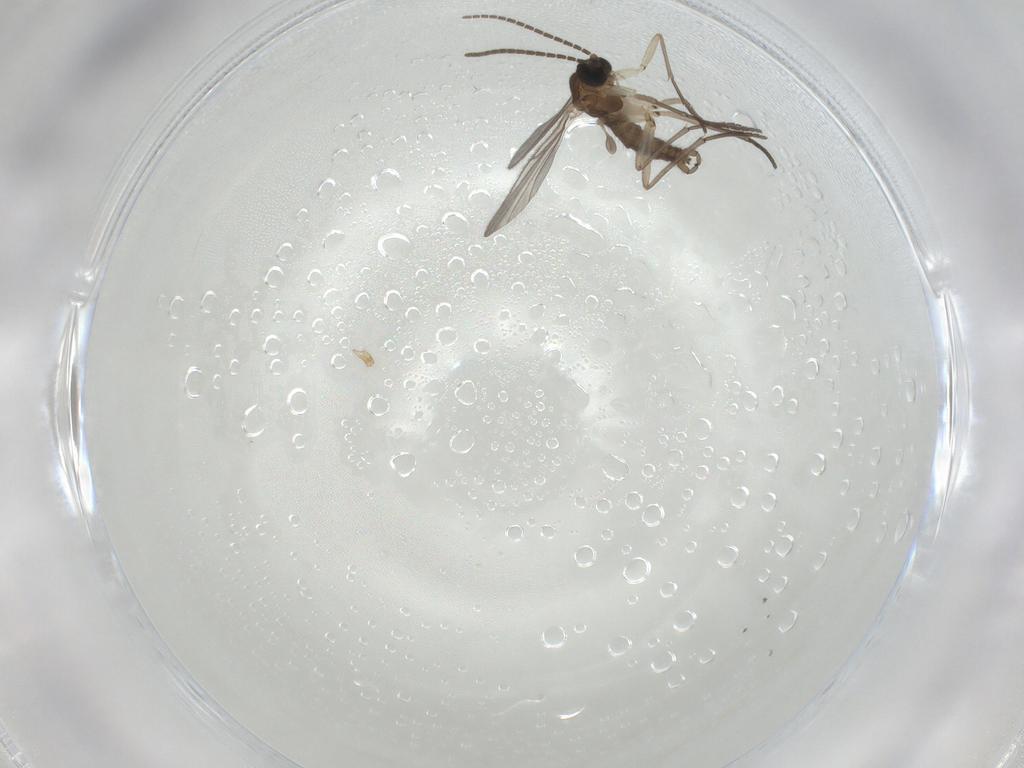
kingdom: Animalia
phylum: Arthropoda
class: Insecta
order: Diptera
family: Sciaridae
